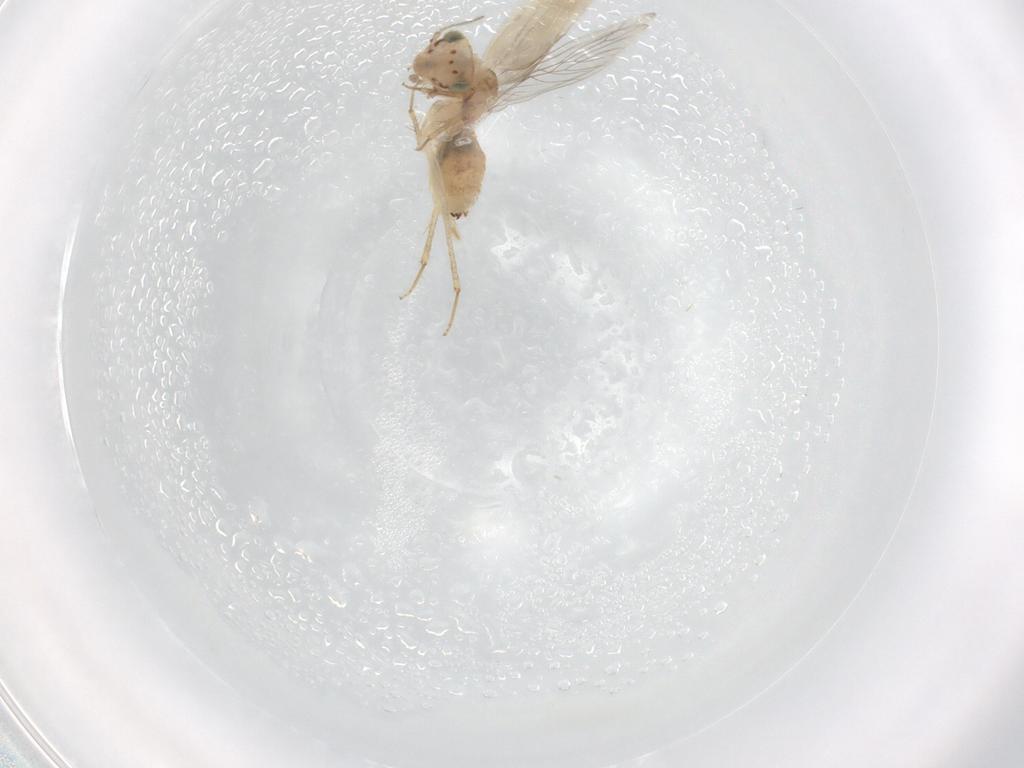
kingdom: Animalia
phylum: Arthropoda
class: Insecta
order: Psocodea
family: Lepidopsocidae
